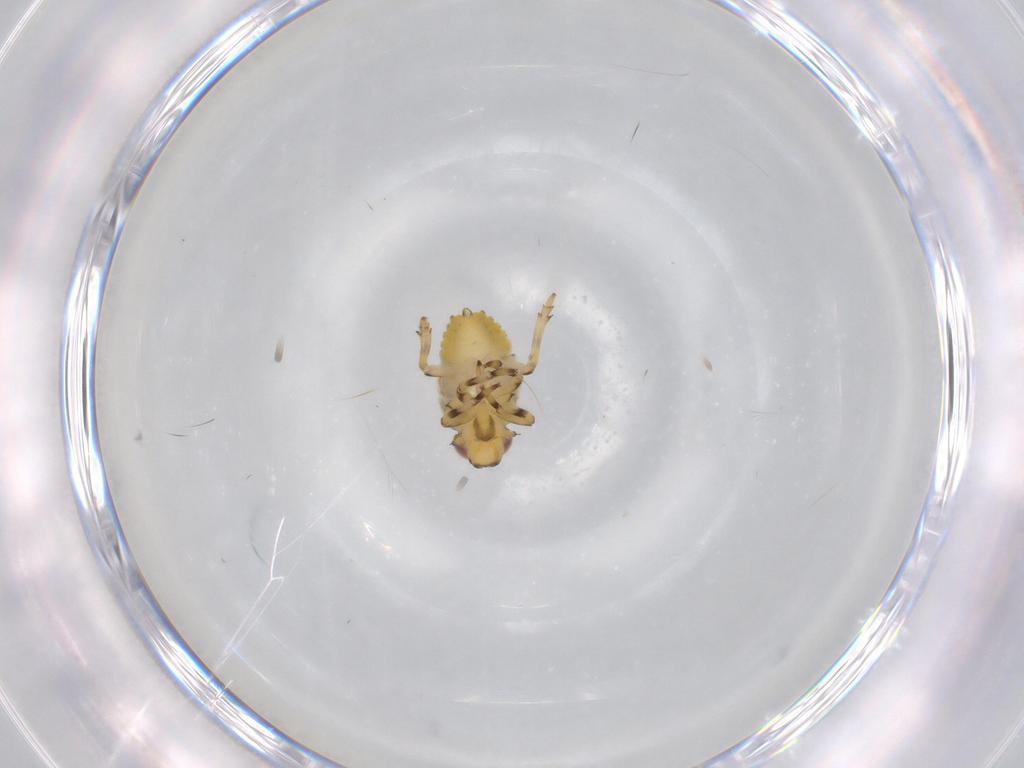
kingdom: Animalia
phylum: Arthropoda
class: Insecta
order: Hemiptera
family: Issidae
